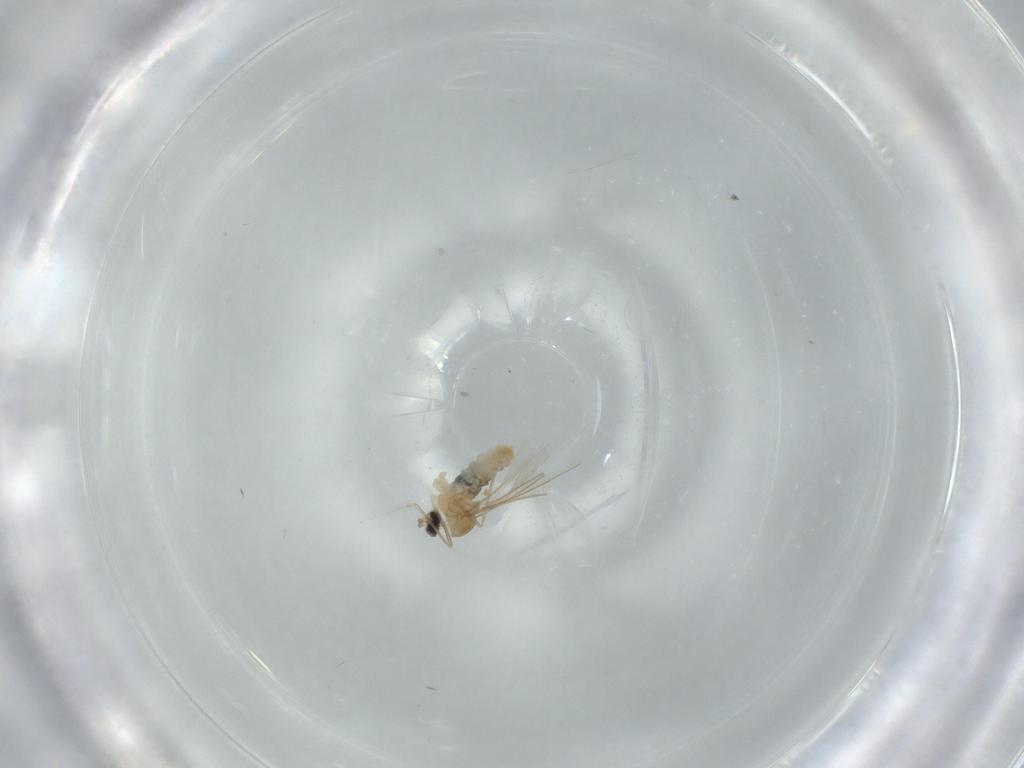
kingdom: Animalia
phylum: Arthropoda
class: Insecta
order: Diptera
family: Cecidomyiidae
